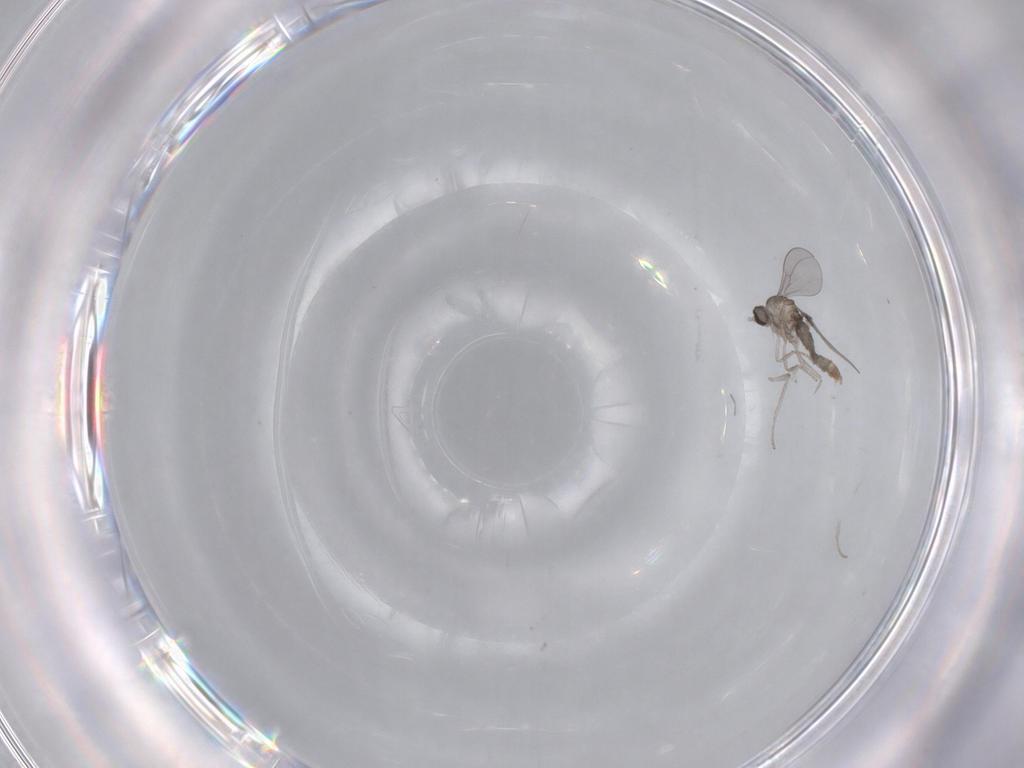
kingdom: Animalia
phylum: Arthropoda
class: Insecta
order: Diptera
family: Cecidomyiidae
